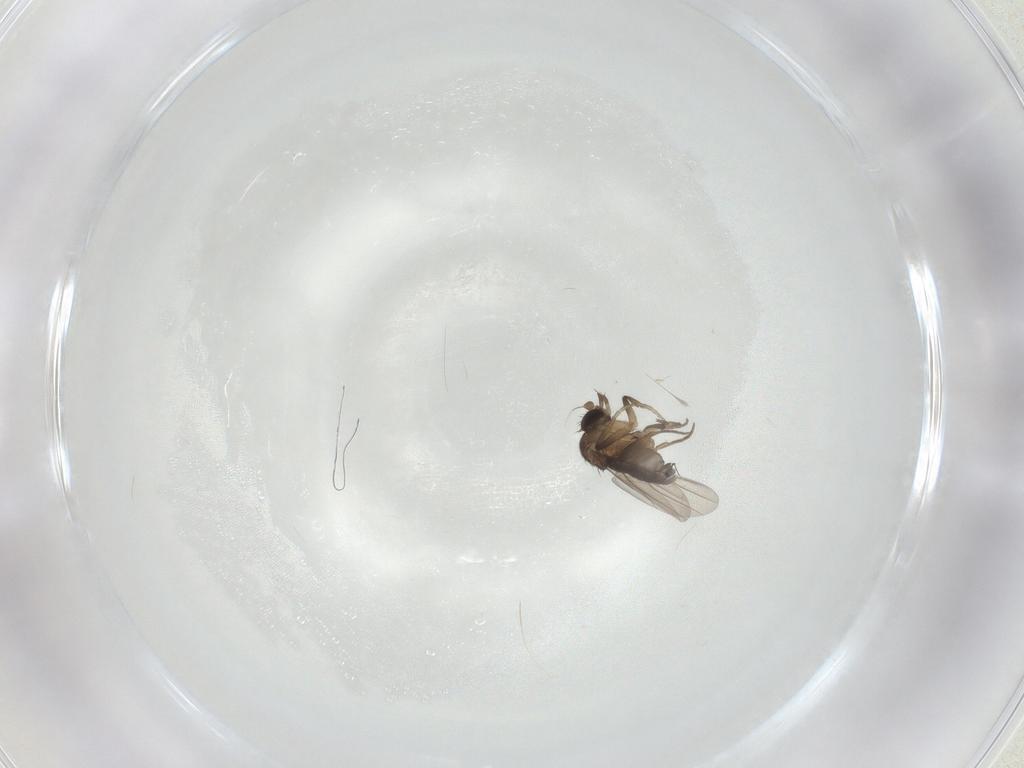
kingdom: Animalia
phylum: Arthropoda
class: Insecta
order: Diptera
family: Phoridae
